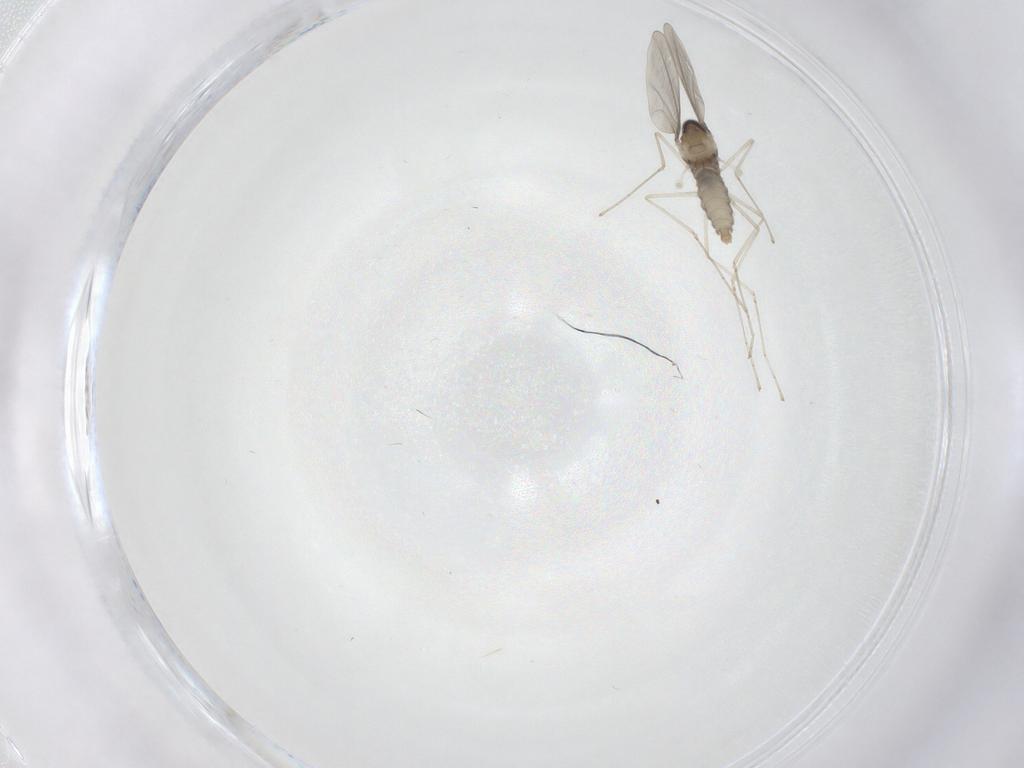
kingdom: Animalia
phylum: Arthropoda
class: Insecta
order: Diptera
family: Cecidomyiidae
